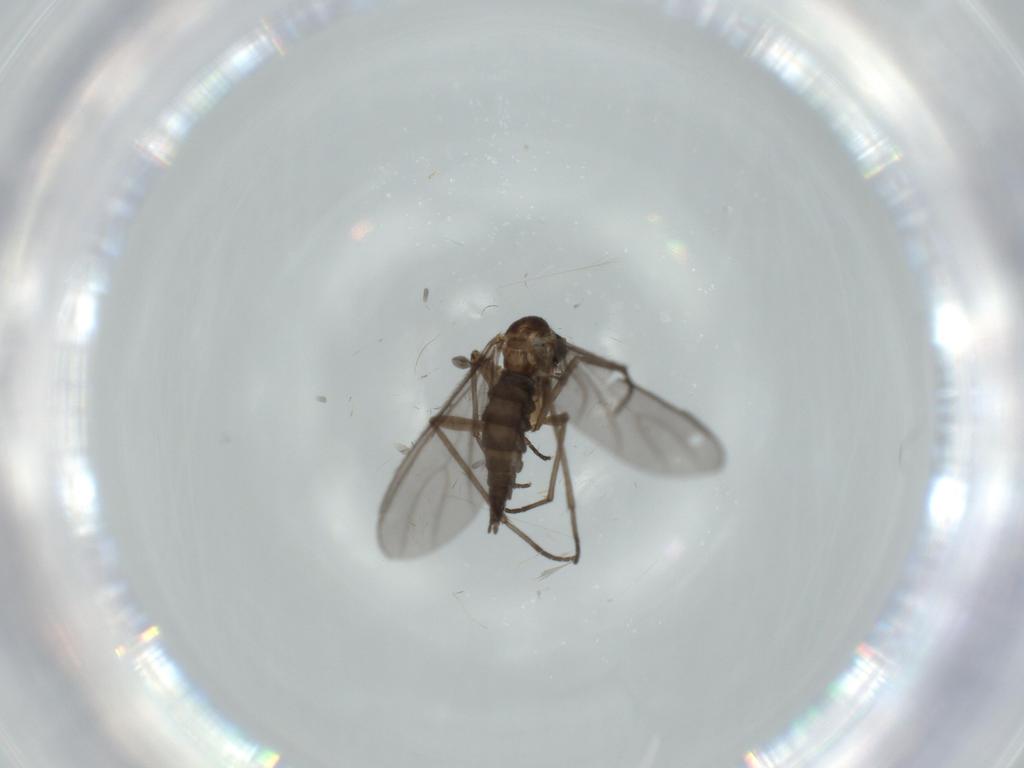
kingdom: Animalia
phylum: Arthropoda
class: Insecta
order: Diptera
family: Sciaridae
